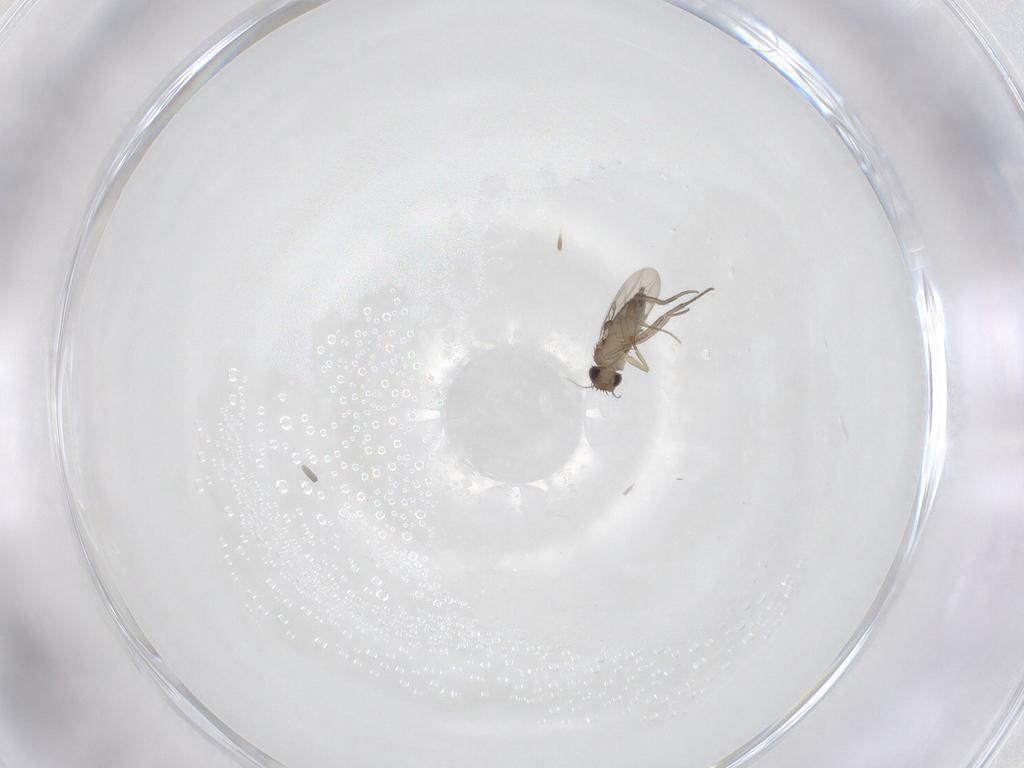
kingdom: Animalia
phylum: Arthropoda
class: Insecta
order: Diptera
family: Phoridae
